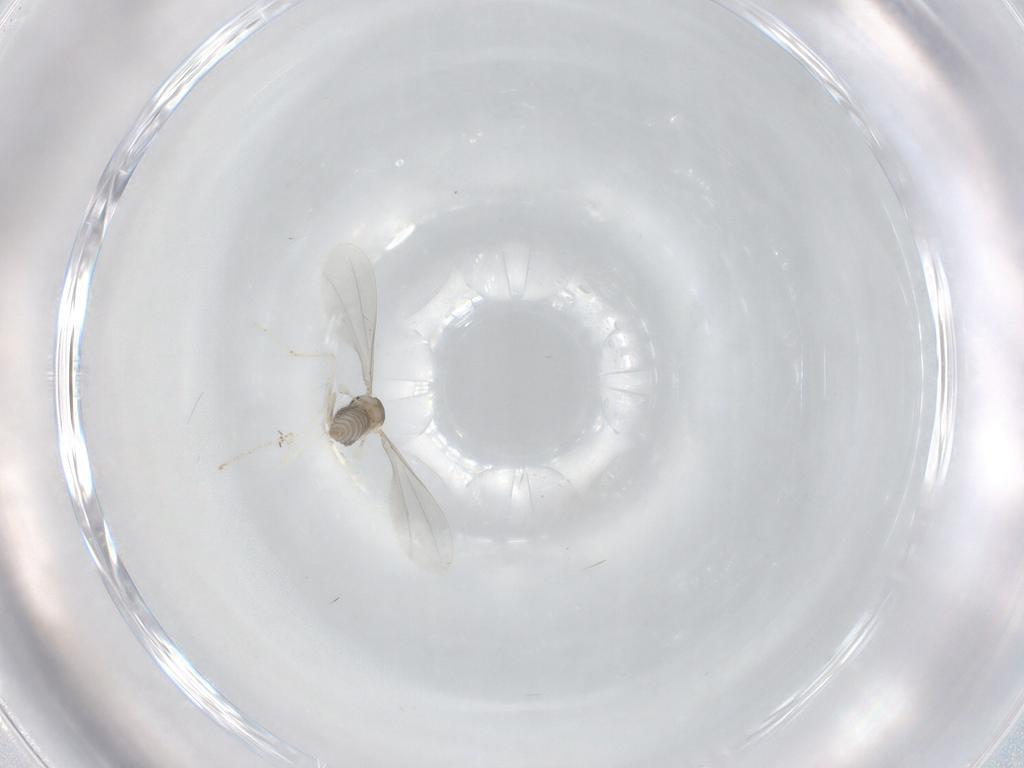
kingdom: Animalia
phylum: Arthropoda
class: Insecta
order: Diptera
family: Cecidomyiidae
